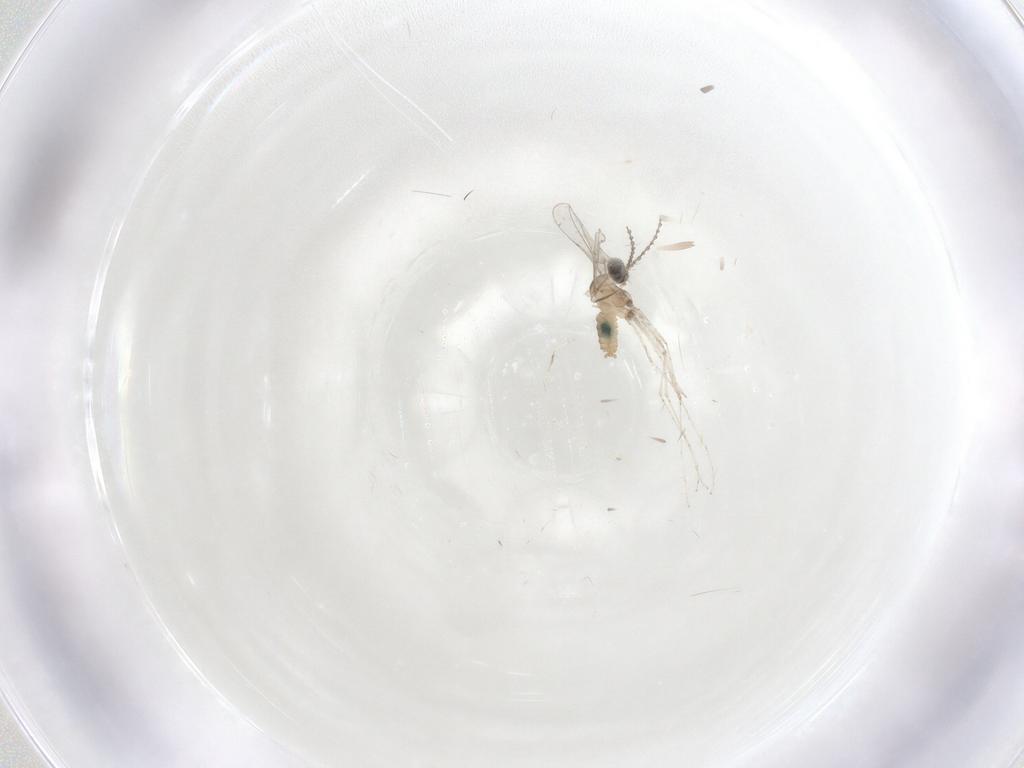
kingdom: Animalia
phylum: Arthropoda
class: Insecta
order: Diptera
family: Cecidomyiidae
